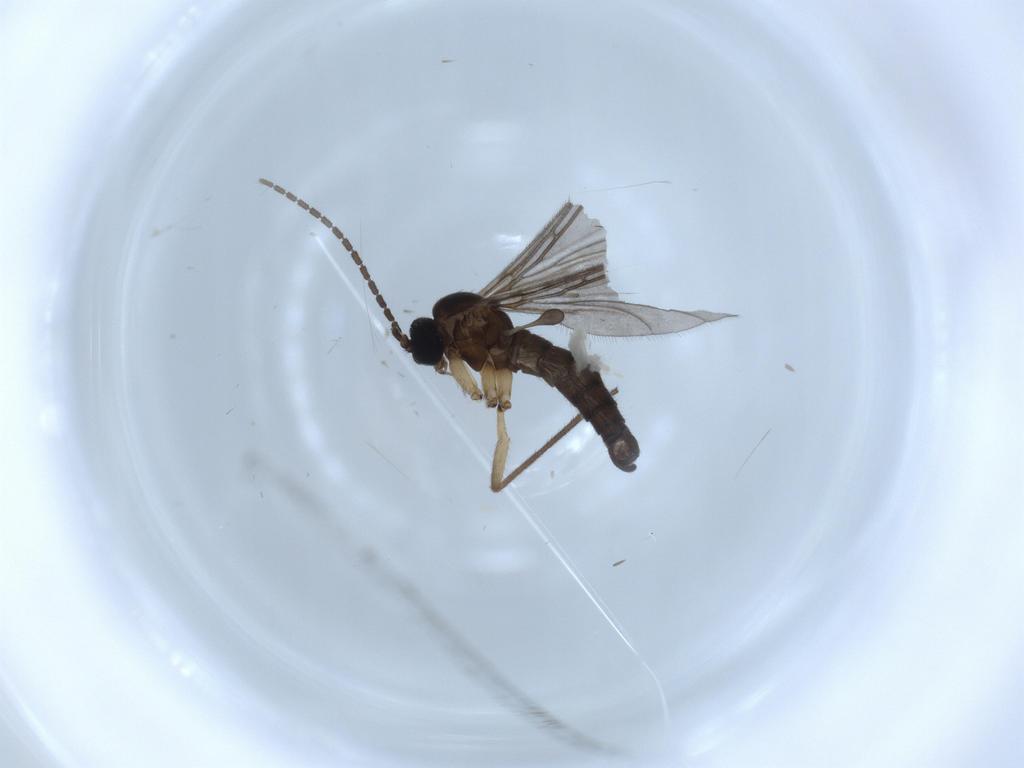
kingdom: Animalia
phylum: Arthropoda
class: Insecta
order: Diptera
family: Sciaridae
